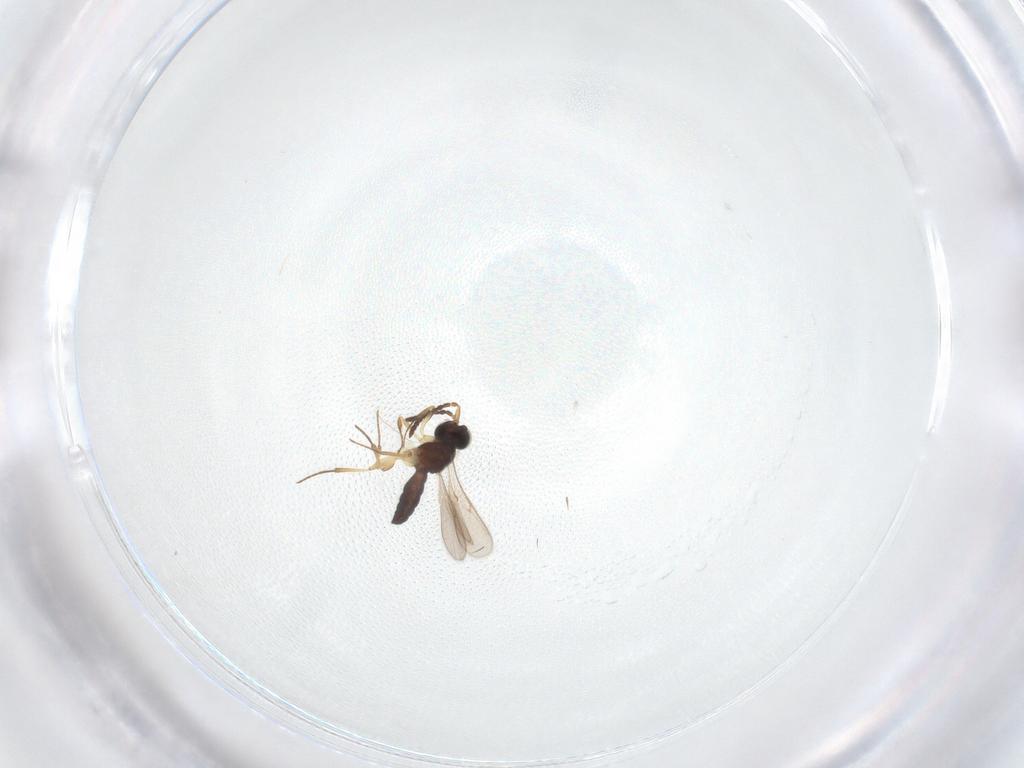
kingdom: Animalia
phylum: Arthropoda
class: Insecta
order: Hymenoptera
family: Scelionidae
